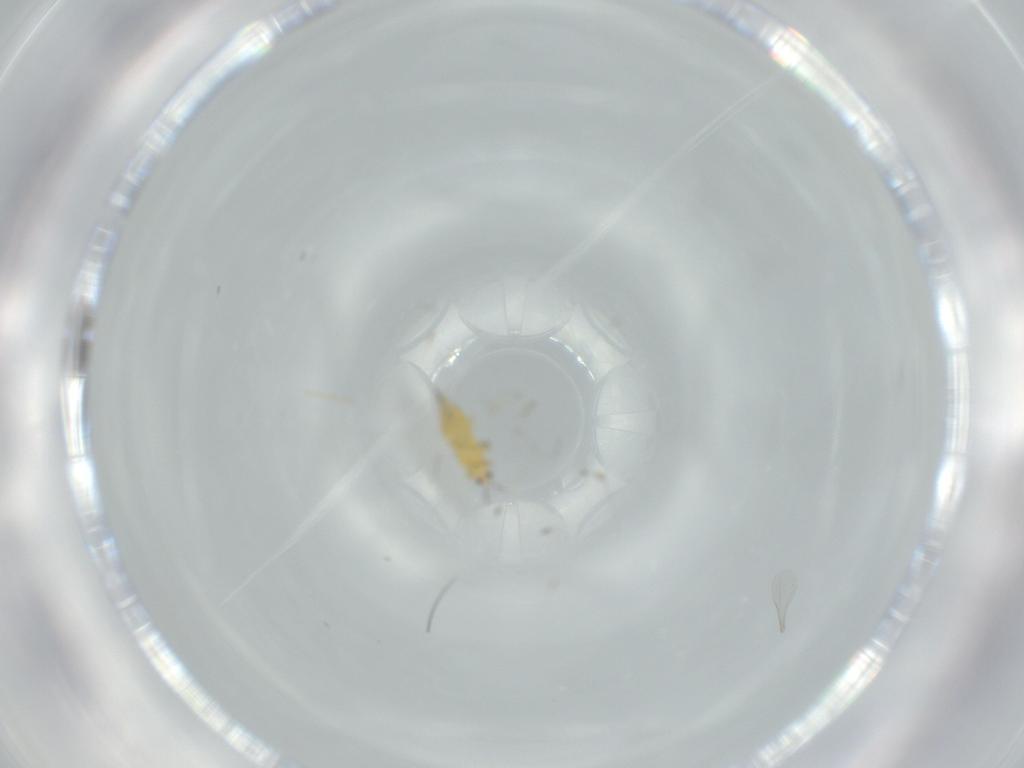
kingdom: Animalia
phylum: Arthropoda
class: Insecta
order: Thysanoptera
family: Thripidae
